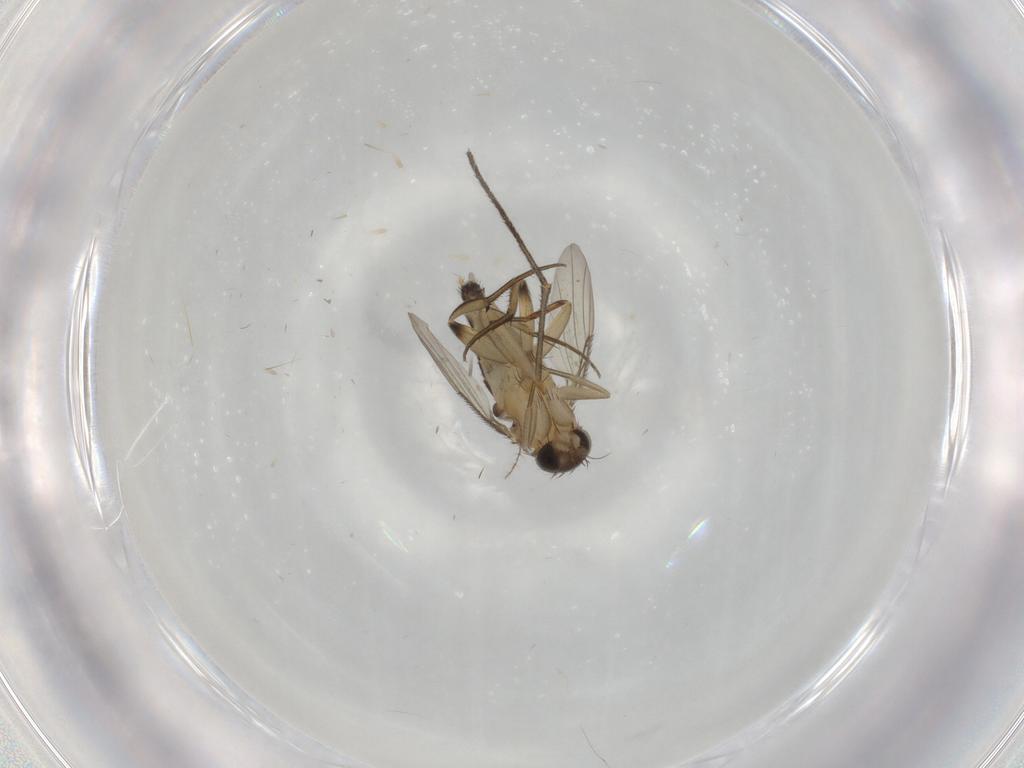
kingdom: Animalia
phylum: Arthropoda
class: Insecta
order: Diptera
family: Phoridae
